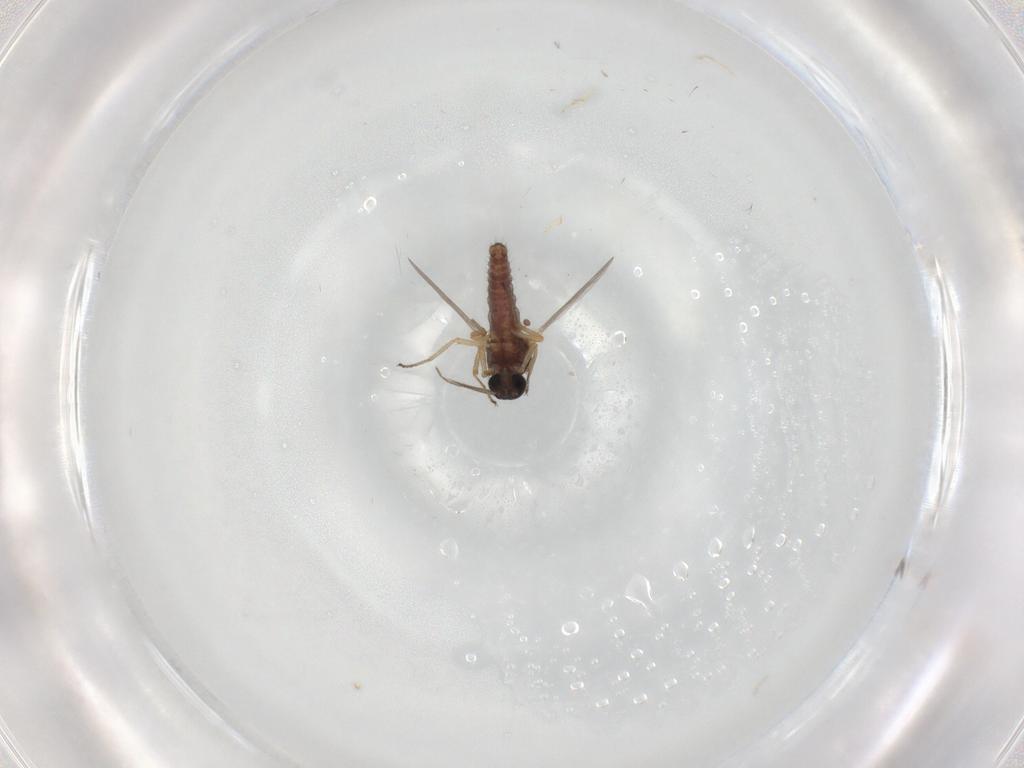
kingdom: Animalia
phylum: Arthropoda
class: Insecta
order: Diptera
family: Ceratopogonidae
